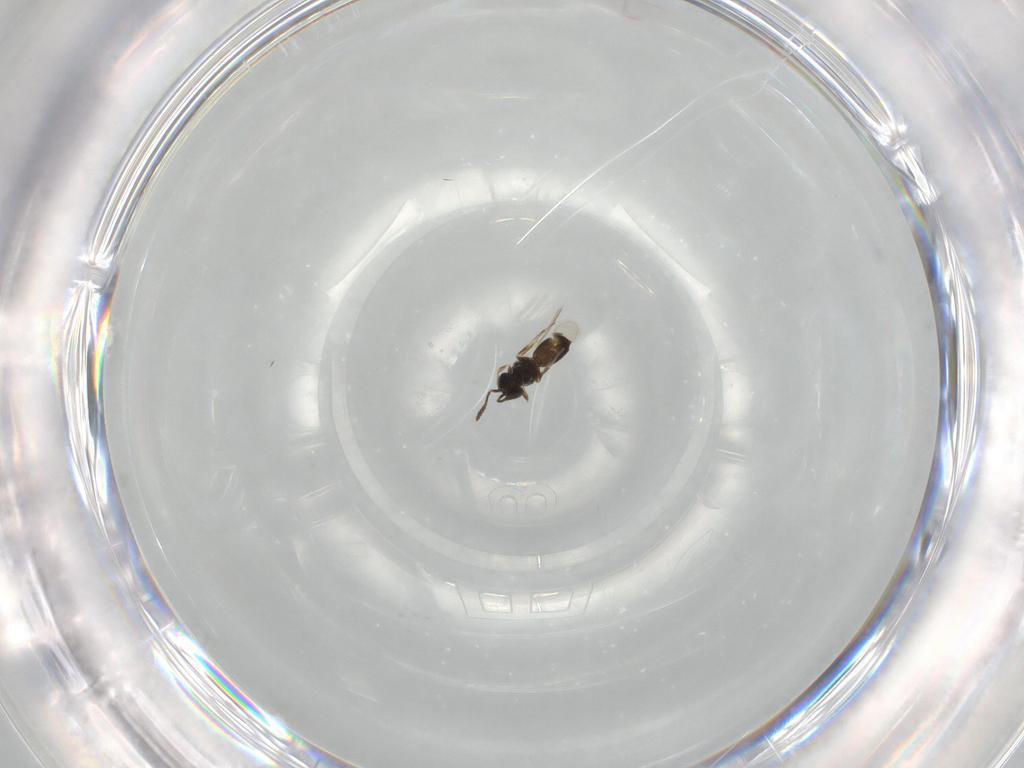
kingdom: Animalia
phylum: Arthropoda
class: Insecta
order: Hymenoptera
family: Scelionidae
